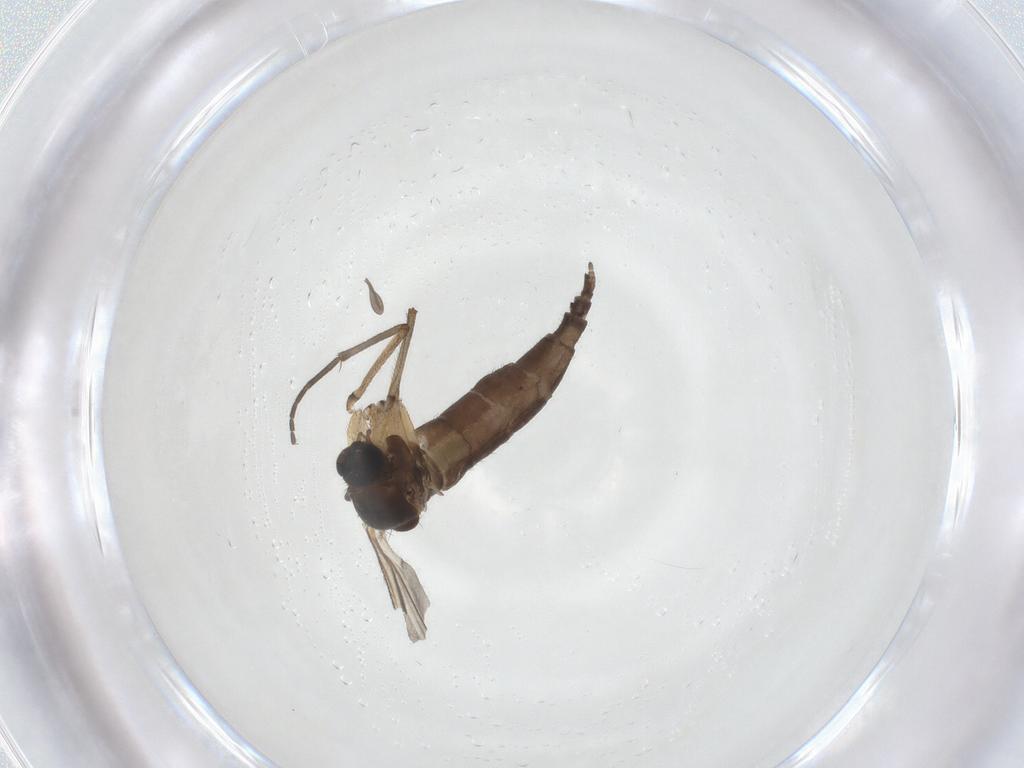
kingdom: Animalia
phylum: Arthropoda
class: Insecta
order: Diptera
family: Sciaridae
